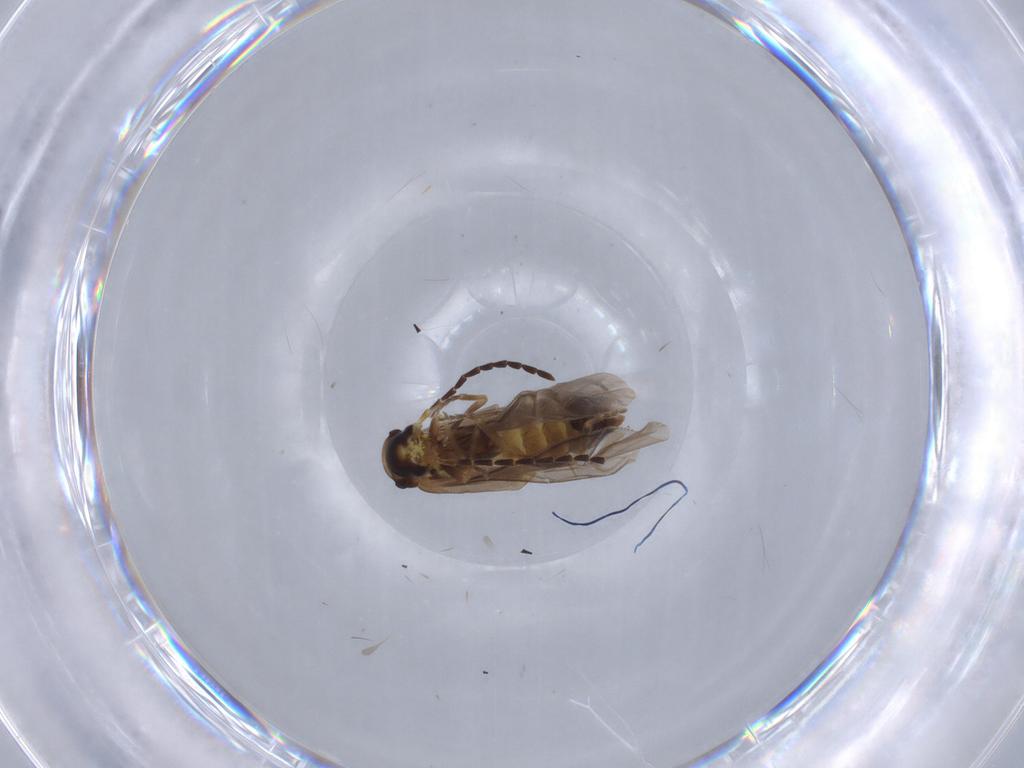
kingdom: Animalia
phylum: Arthropoda
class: Insecta
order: Coleoptera
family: Cantharidae
